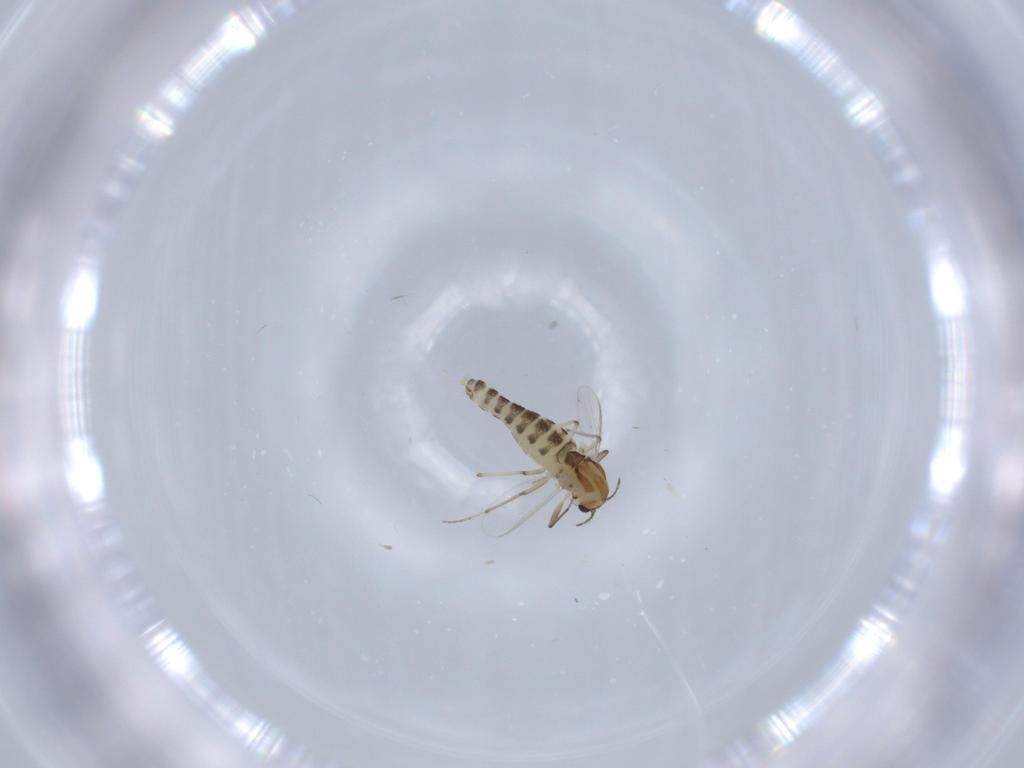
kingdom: Animalia
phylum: Arthropoda
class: Insecta
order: Diptera
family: Chironomidae
